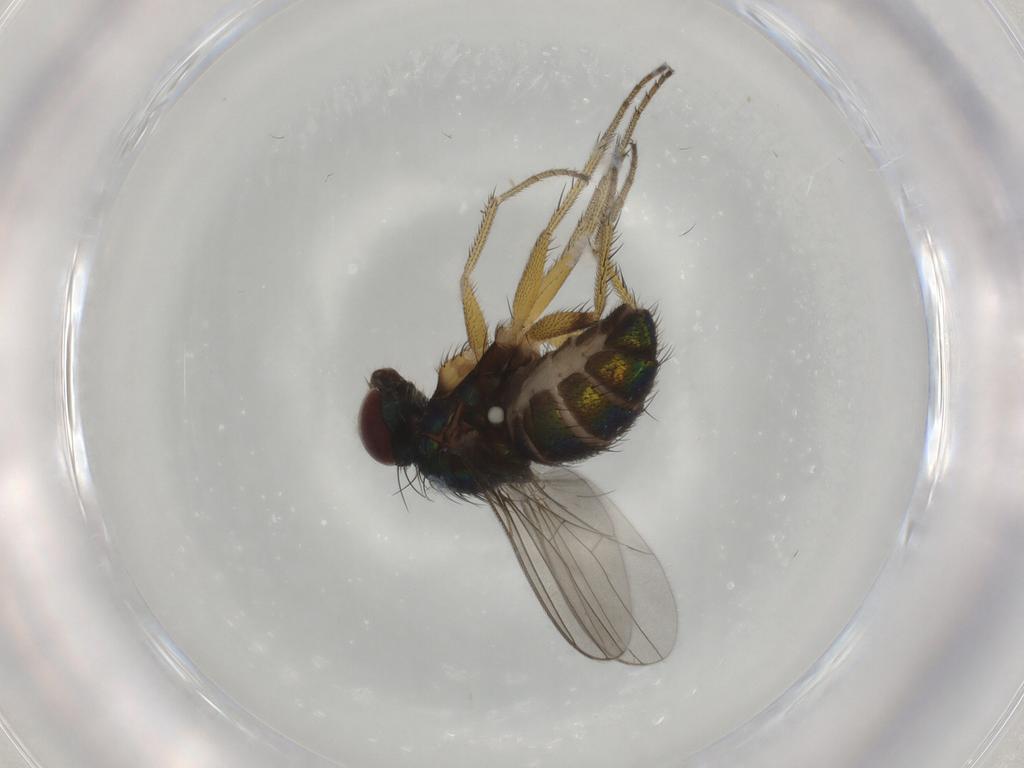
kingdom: Animalia
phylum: Arthropoda
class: Insecta
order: Diptera
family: Dolichopodidae
